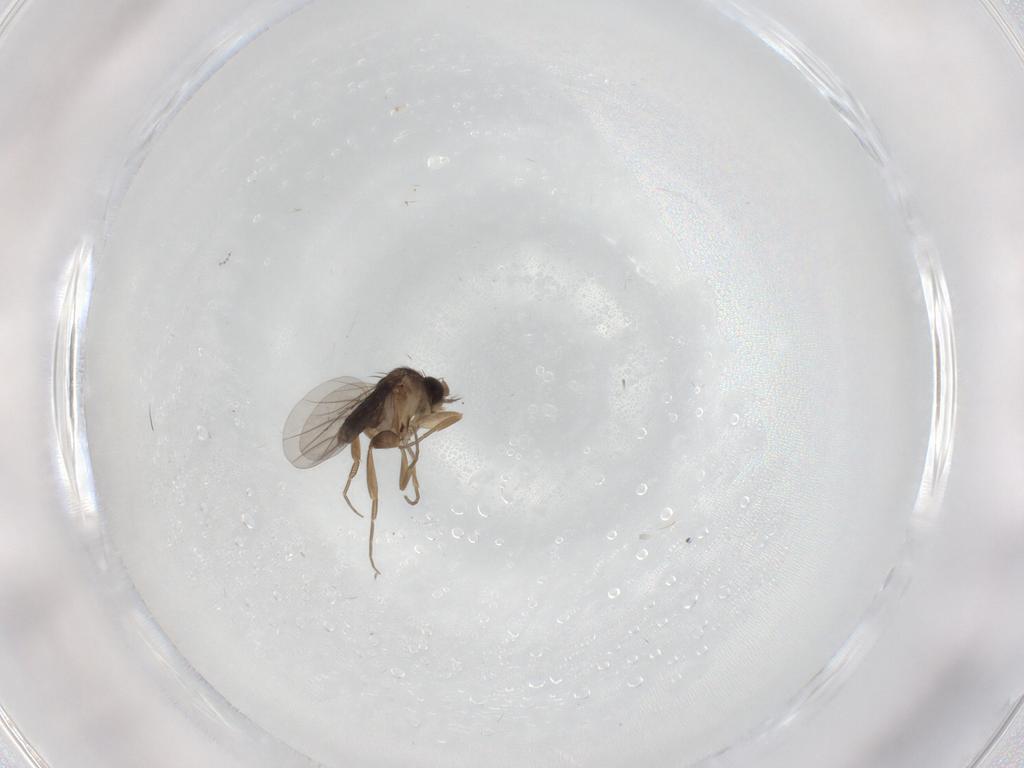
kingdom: Animalia
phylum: Arthropoda
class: Insecta
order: Diptera
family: Phoridae
